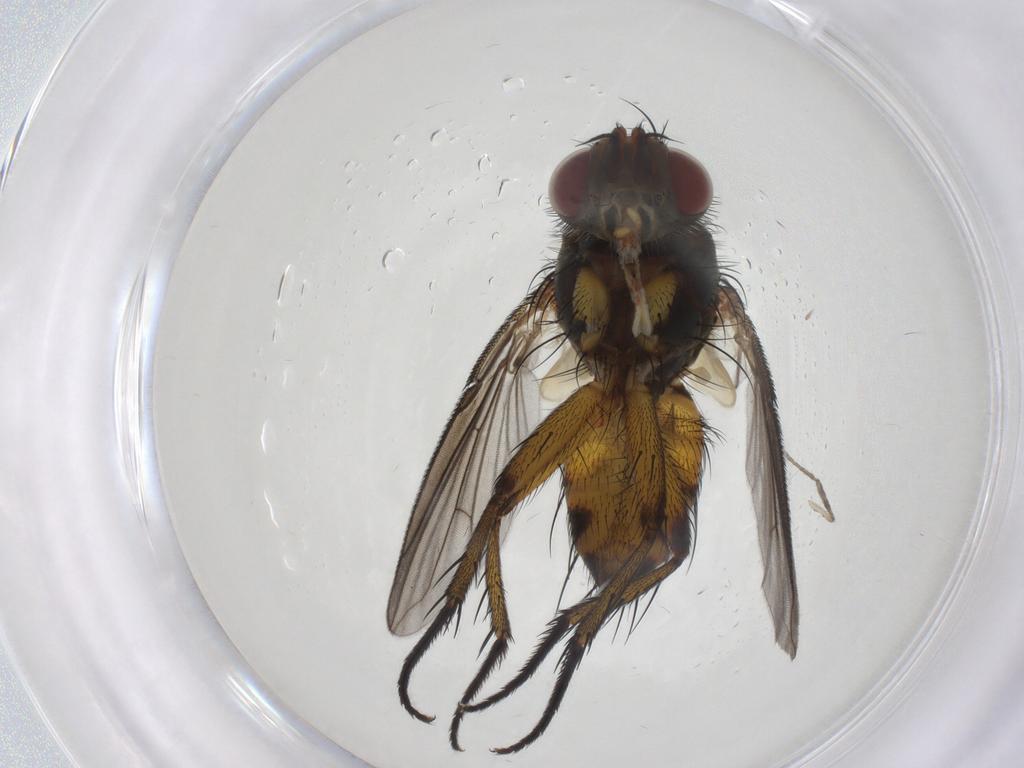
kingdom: Animalia
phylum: Arthropoda
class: Insecta
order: Diptera
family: Tachinidae
